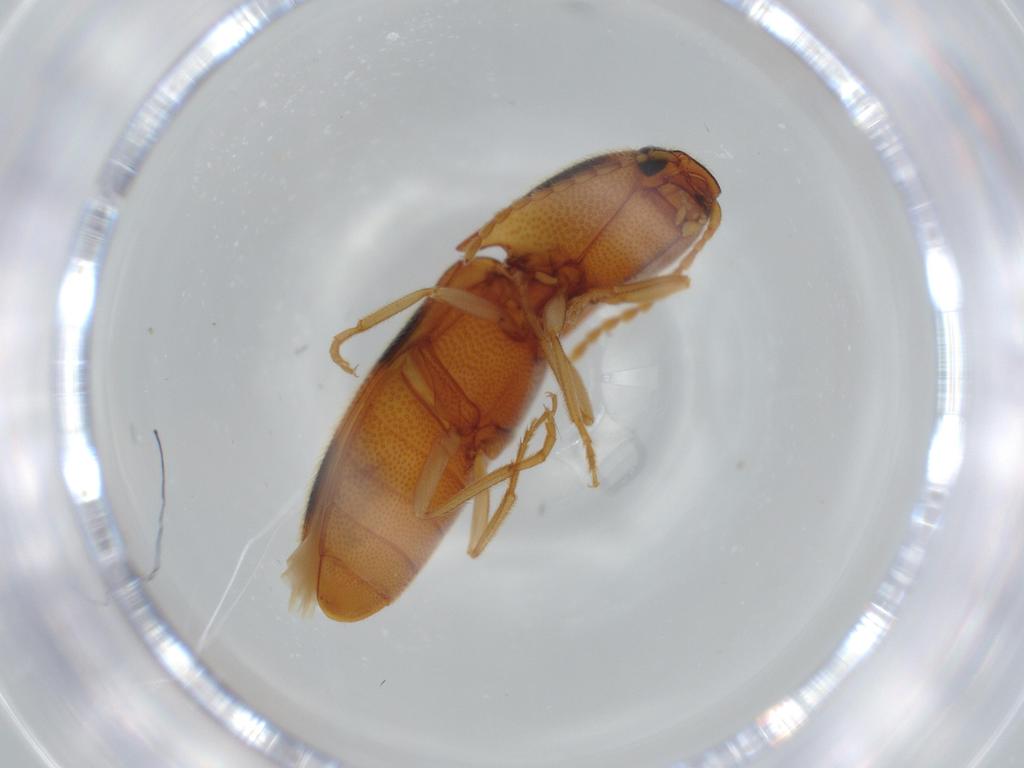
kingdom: Animalia
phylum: Arthropoda
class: Insecta
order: Coleoptera
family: Elateridae
